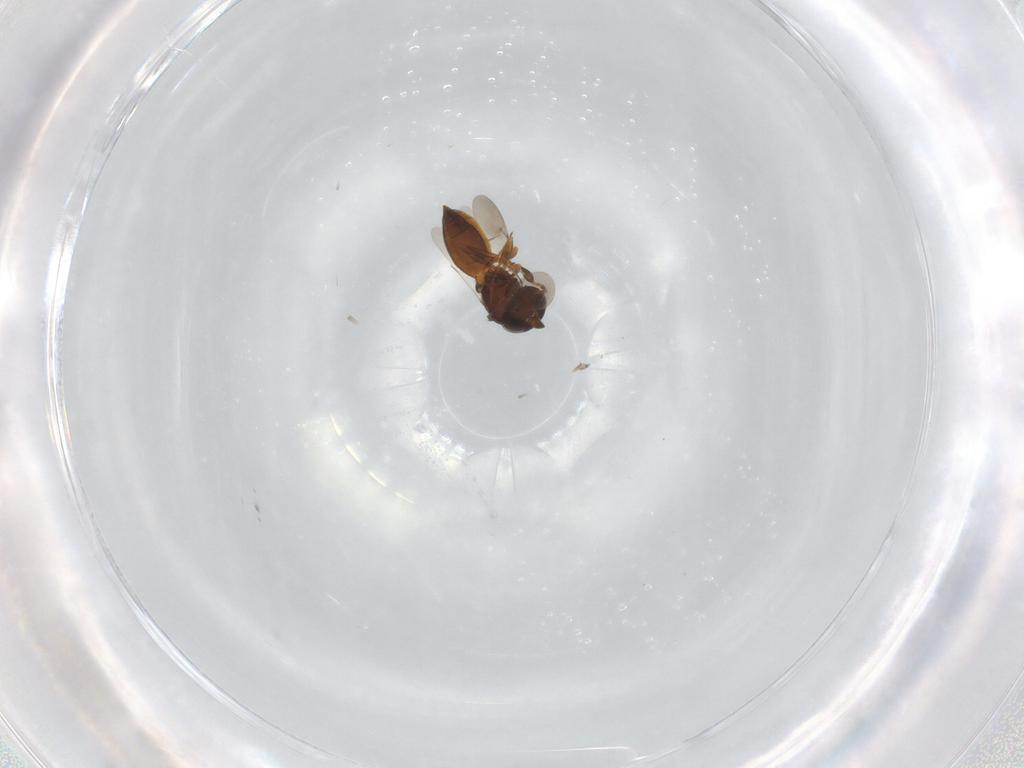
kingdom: Animalia
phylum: Arthropoda
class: Insecta
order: Hymenoptera
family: Scelionidae
